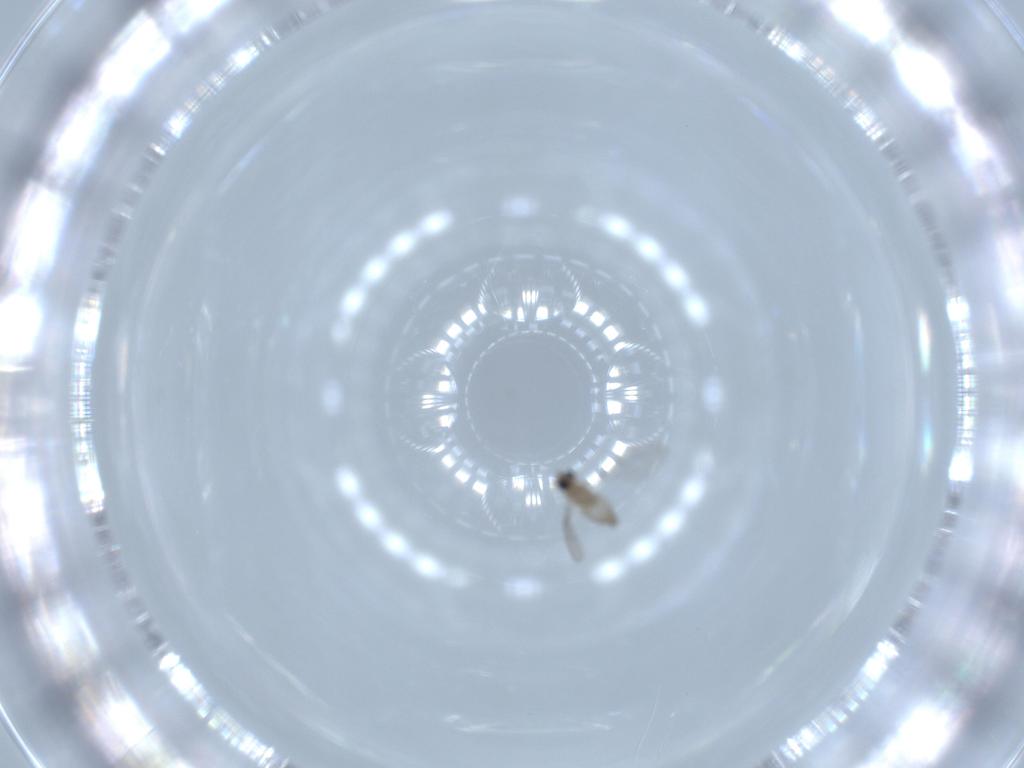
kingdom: Animalia
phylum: Arthropoda
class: Insecta
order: Diptera
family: Cecidomyiidae
